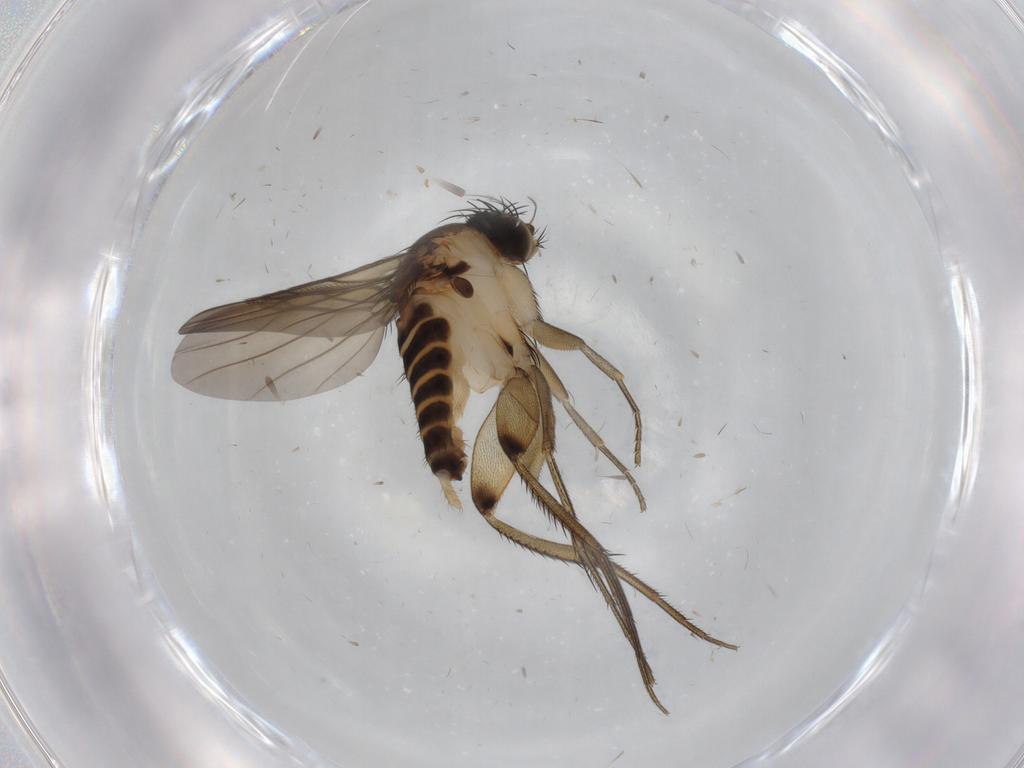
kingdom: Animalia
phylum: Arthropoda
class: Insecta
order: Diptera
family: Phoridae
